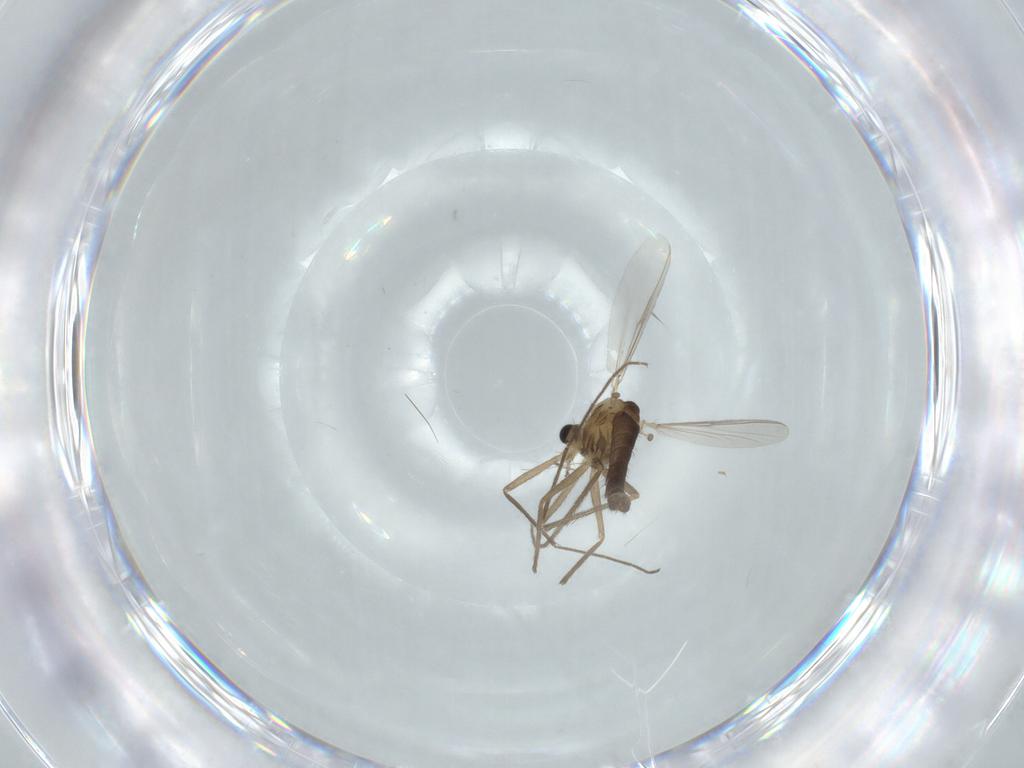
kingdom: Animalia
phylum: Arthropoda
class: Insecta
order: Diptera
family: Chironomidae
